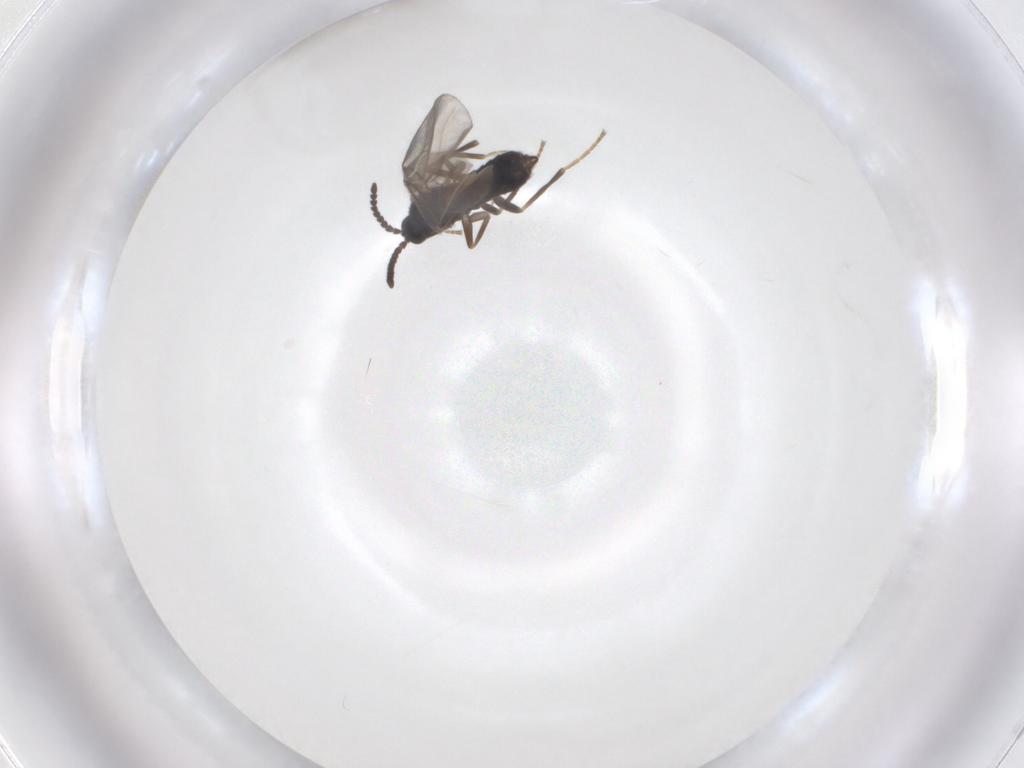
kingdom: Animalia
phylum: Arthropoda
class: Insecta
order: Diptera
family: Scatopsidae
